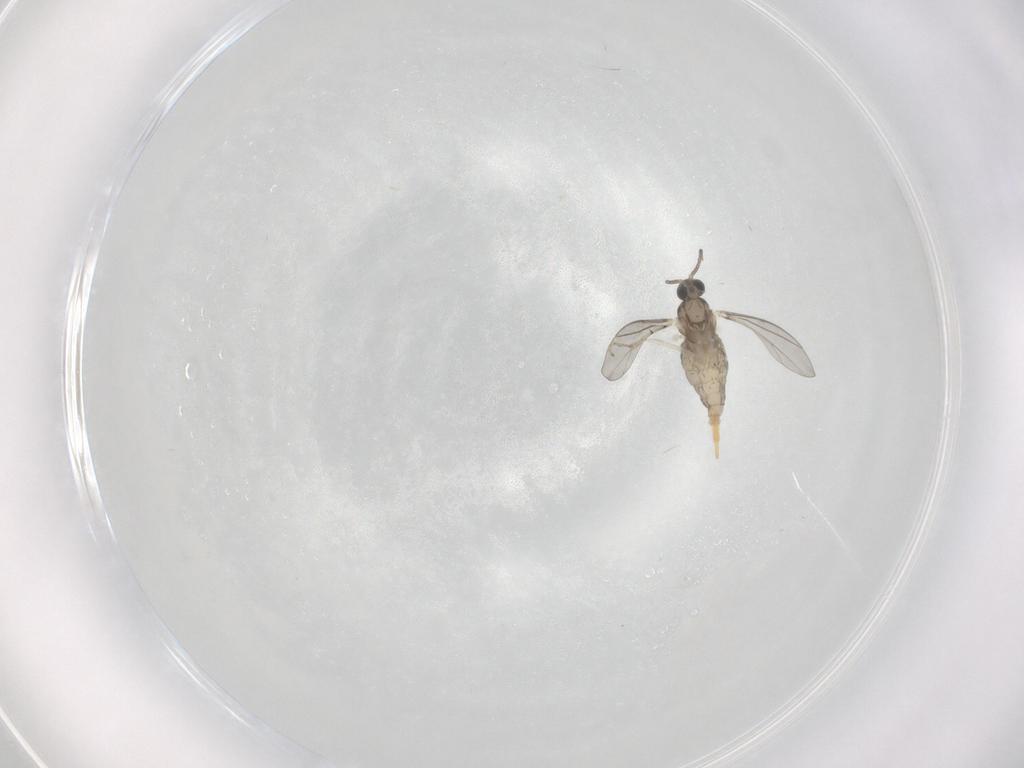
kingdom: Animalia
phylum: Arthropoda
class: Insecta
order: Diptera
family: Cecidomyiidae
